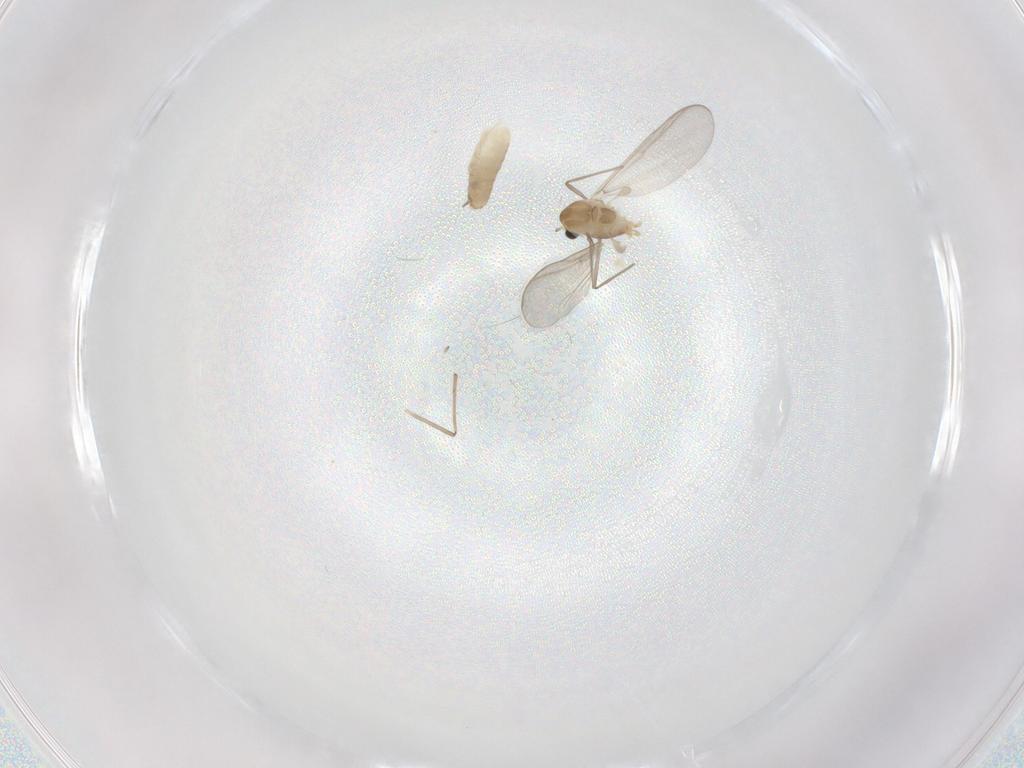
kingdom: Animalia
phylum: Arthropoda
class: Insecta
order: Diptera
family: Chironomidae
